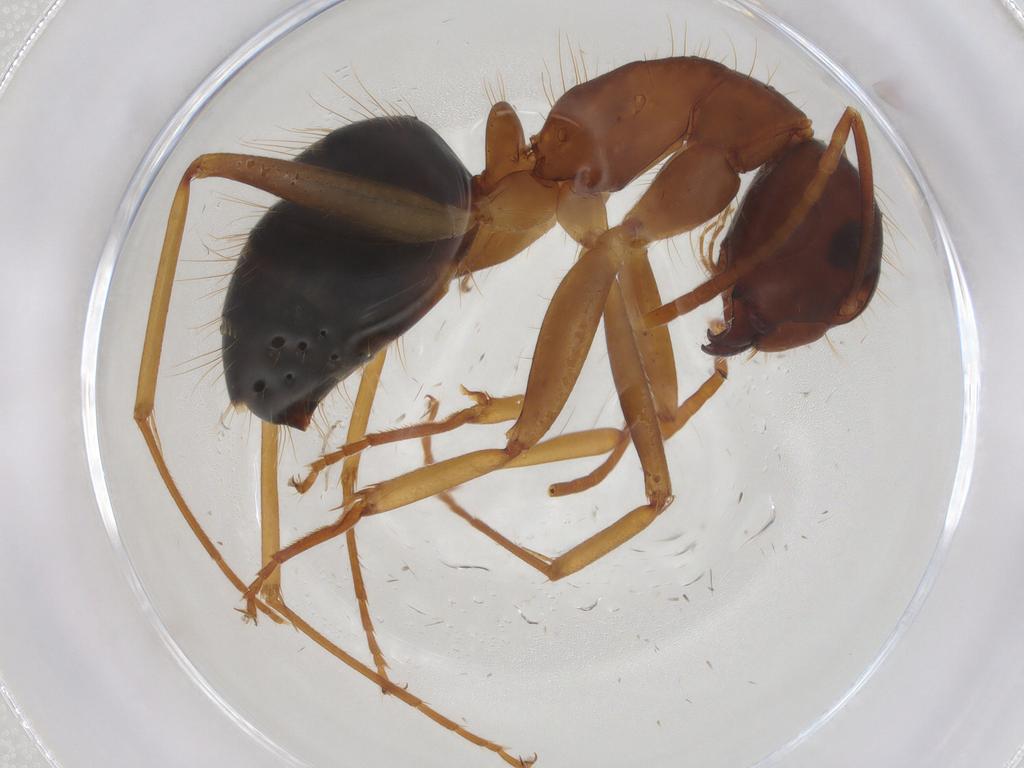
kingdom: Animalia
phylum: Arthropoda
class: Insecta
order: Hymenoptera
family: Formicidae
